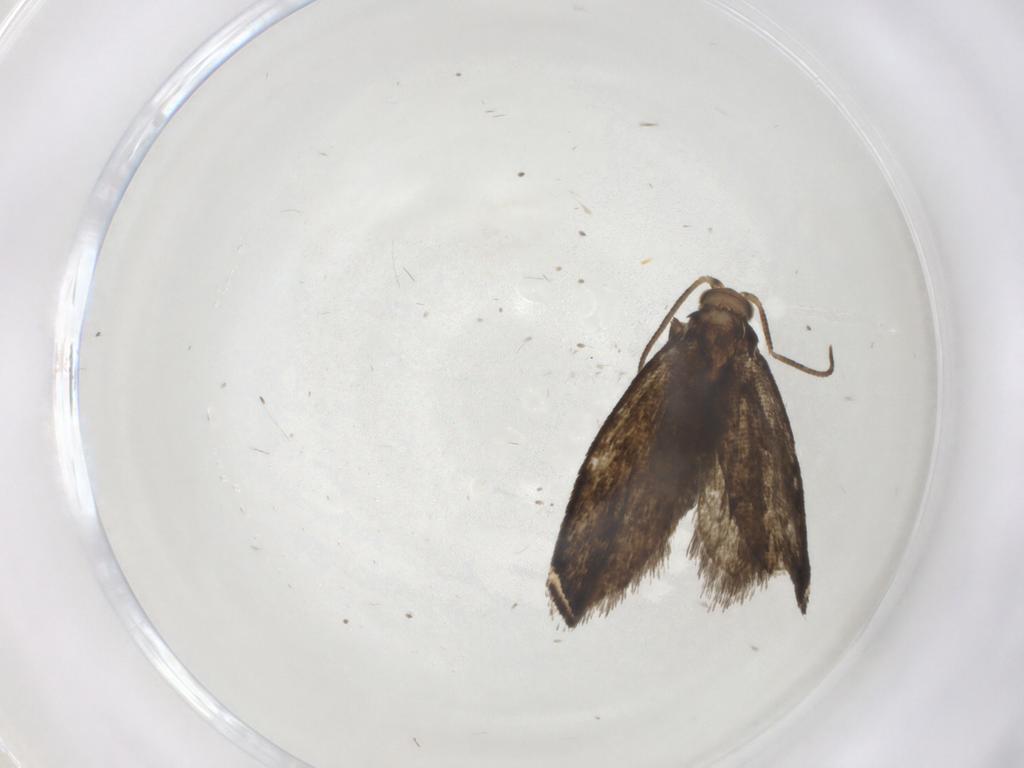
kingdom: Animalia
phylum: Arthropoda
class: Insecta
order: Lepidoptera
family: Tineidae
